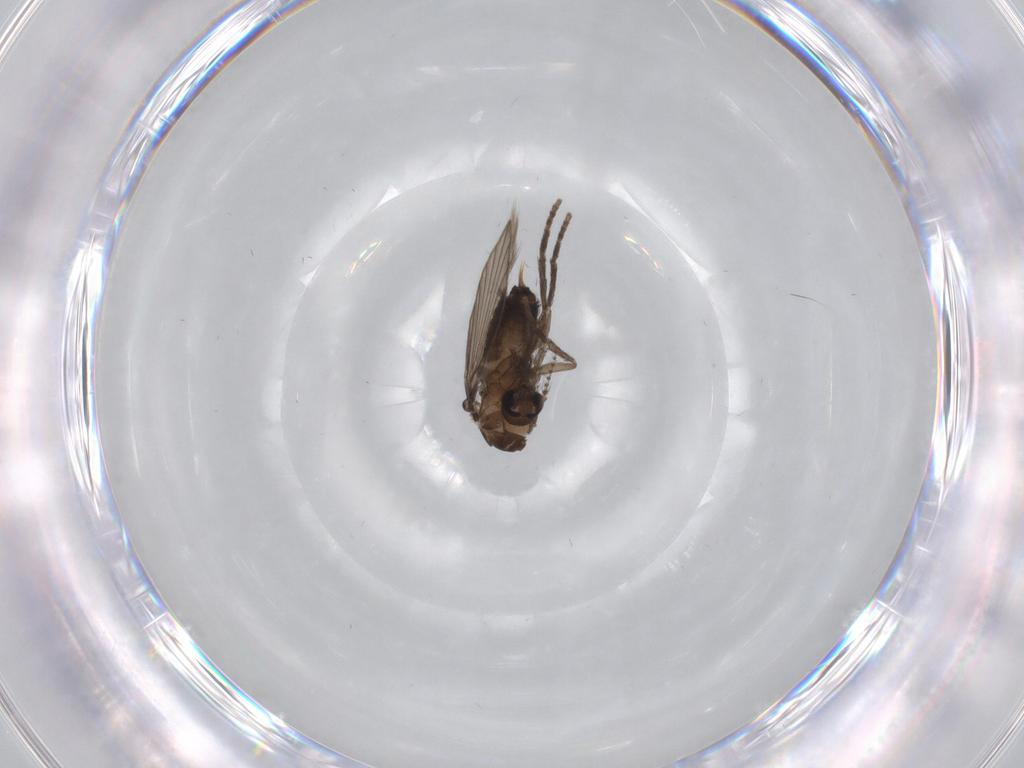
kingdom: Animalia
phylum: Arthropoda
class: Insecta
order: Diptera
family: Psychodidae
